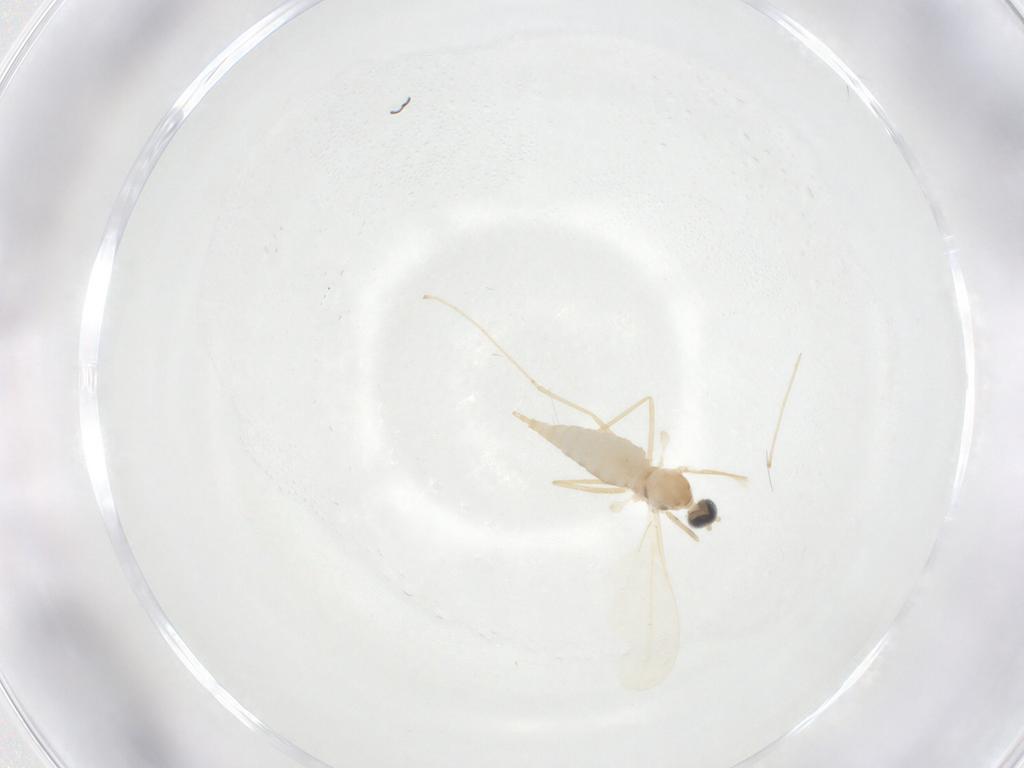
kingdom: Animalia
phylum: Arthropoda
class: Insecta
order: Diptera
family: Cecidomyiidae
